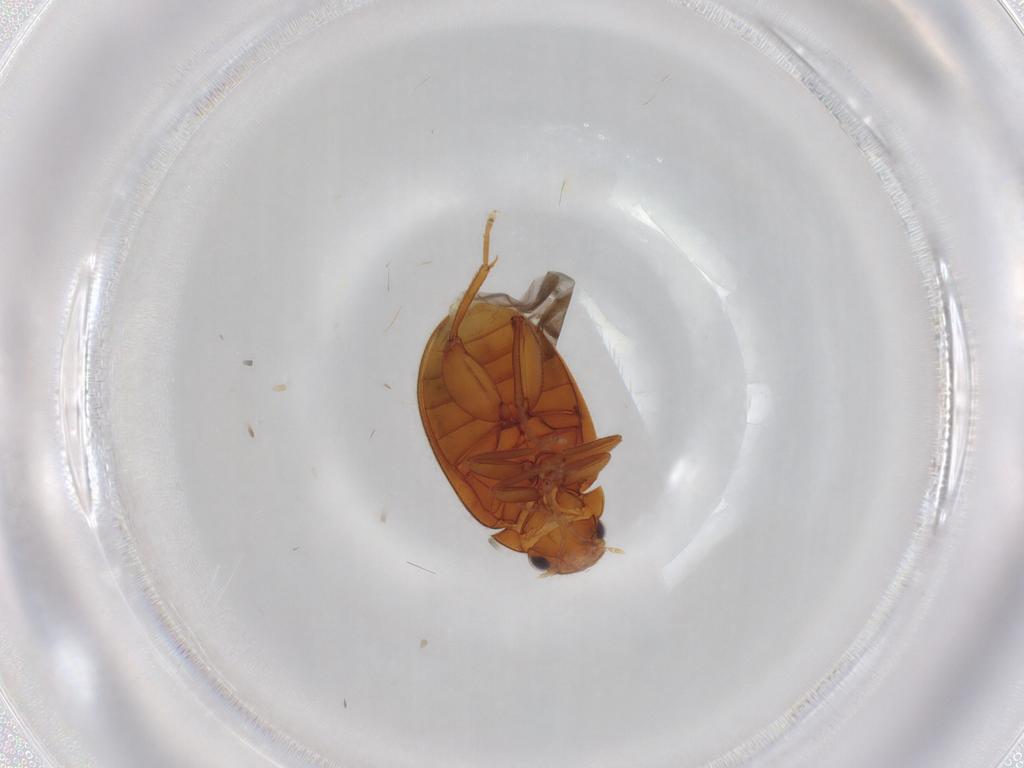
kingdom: Animalia
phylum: Arthropoda
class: Insecta
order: Coleoptera
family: Scirtidae
